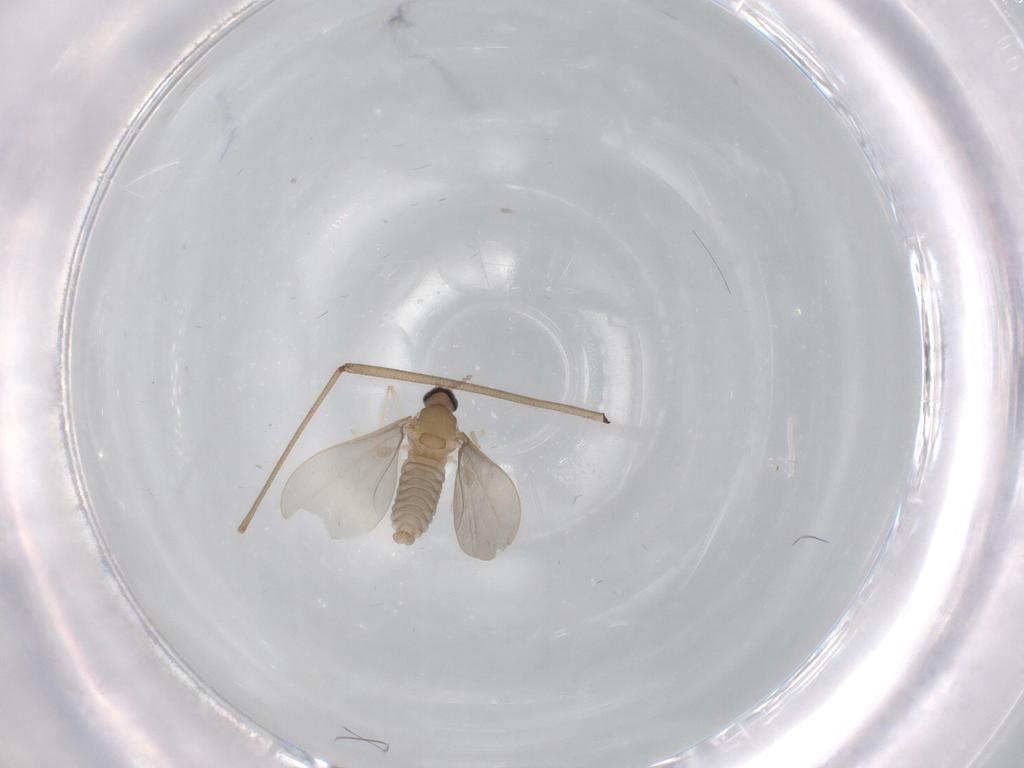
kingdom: Animalia
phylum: Arthropoda
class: Insecta
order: Diptera
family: Limoniidae
